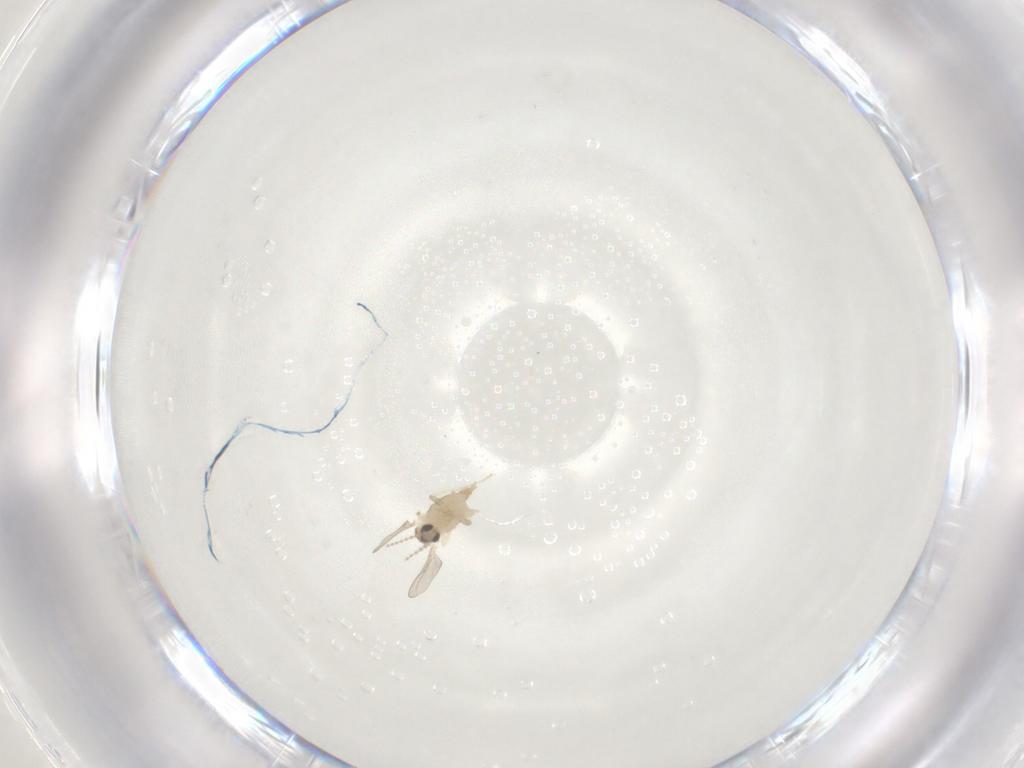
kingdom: Animalia
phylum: Arthropoda
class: Insecta
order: Diptera
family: Cecidomyiidae
